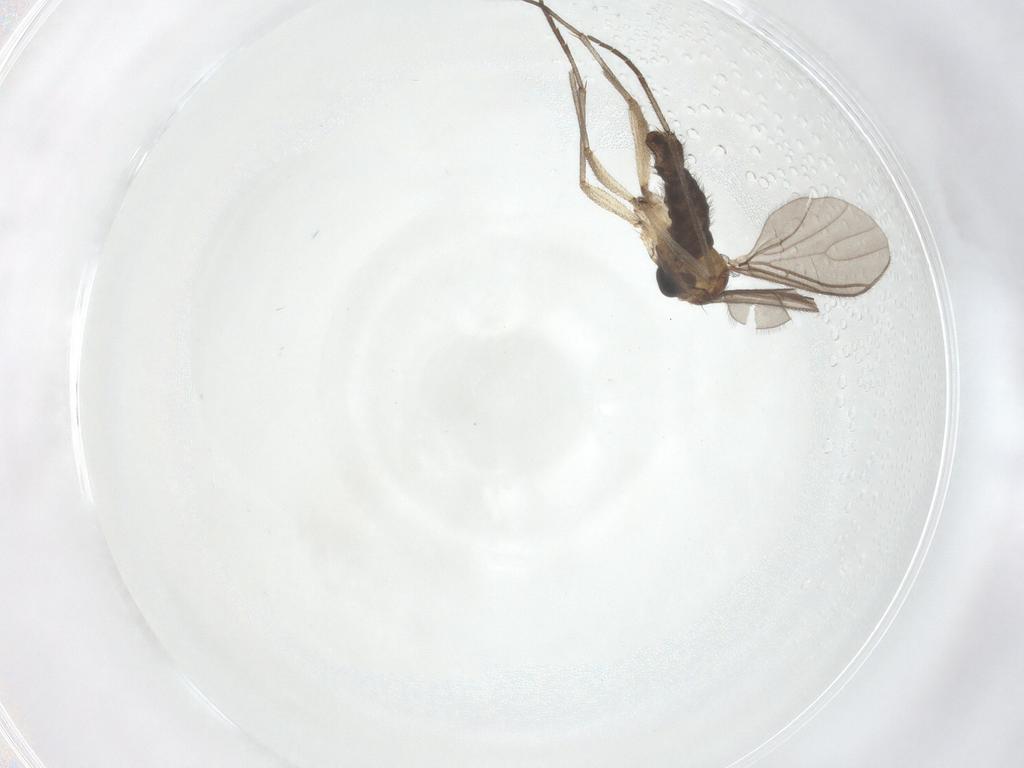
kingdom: Animalia
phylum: Arthropoda
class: Insecta
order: Diptera
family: Sciaridae
